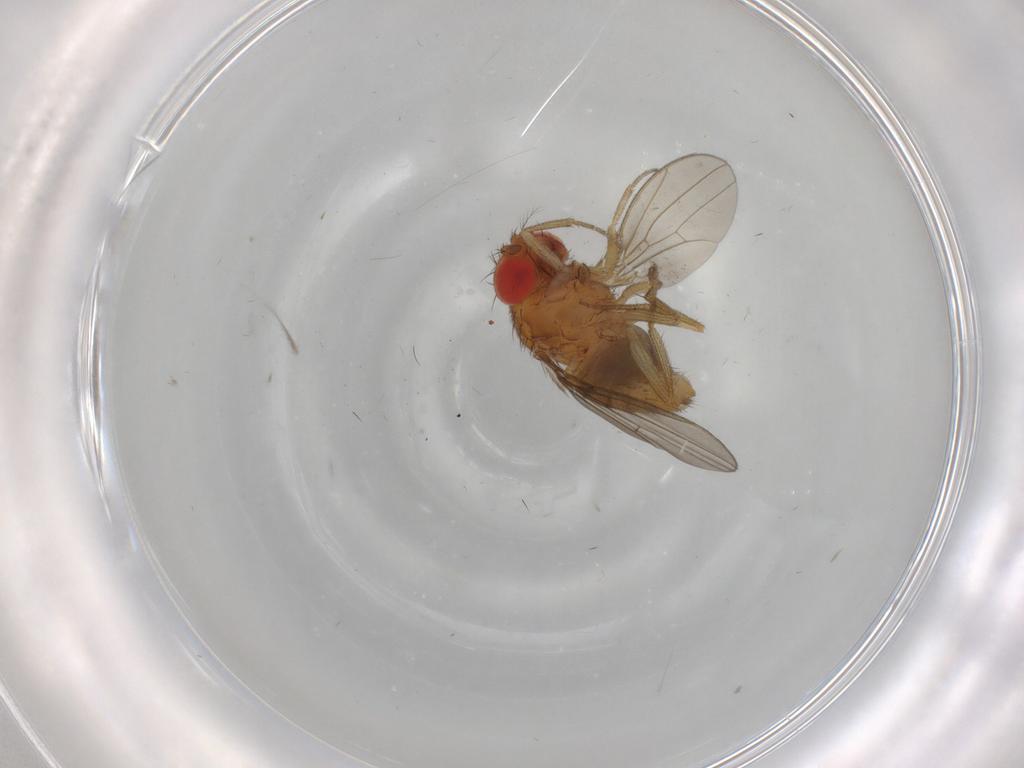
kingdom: Animalia
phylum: Arthropoda
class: Insecta
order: Diptera
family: Drosophilidae
